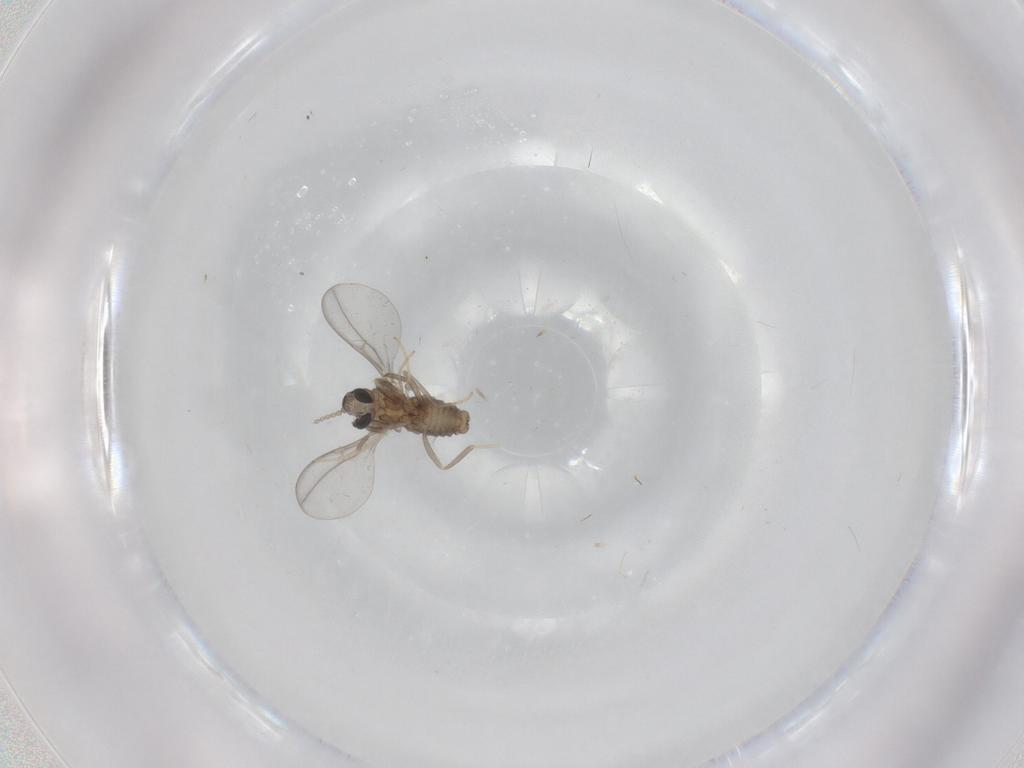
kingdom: Animalia
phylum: Arthropoda
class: Insecta
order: Diptera
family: Cecidomyiidae
